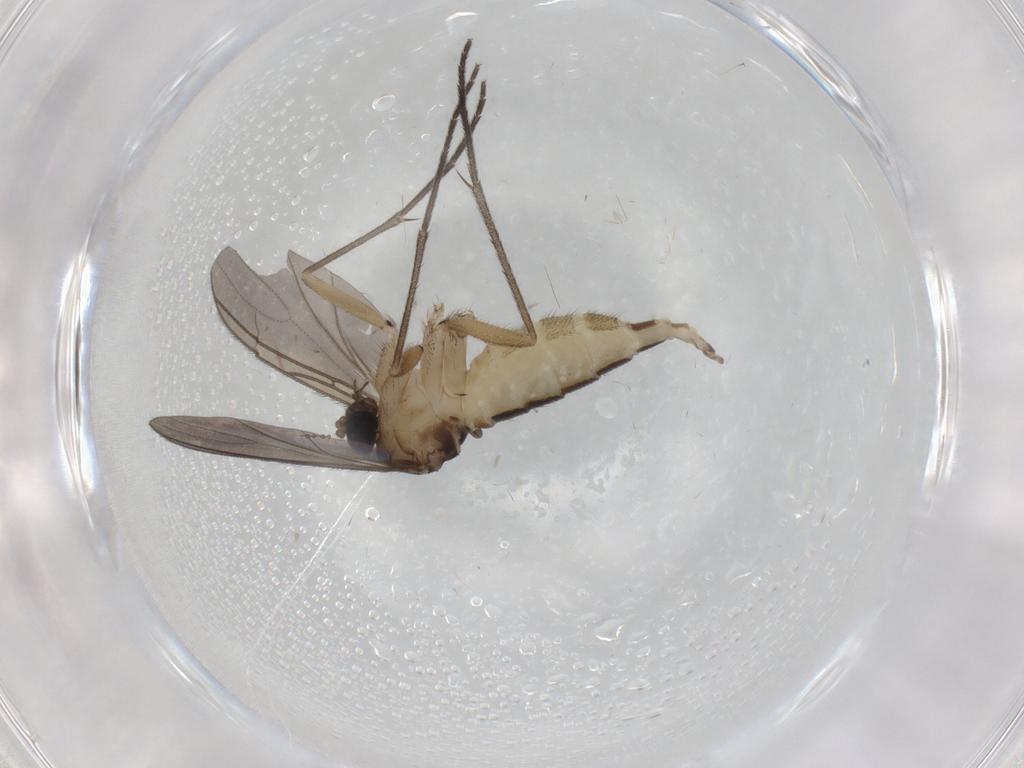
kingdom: Animalia
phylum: Arthropoda
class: Insecta
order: Diptera
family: Sciaridae
